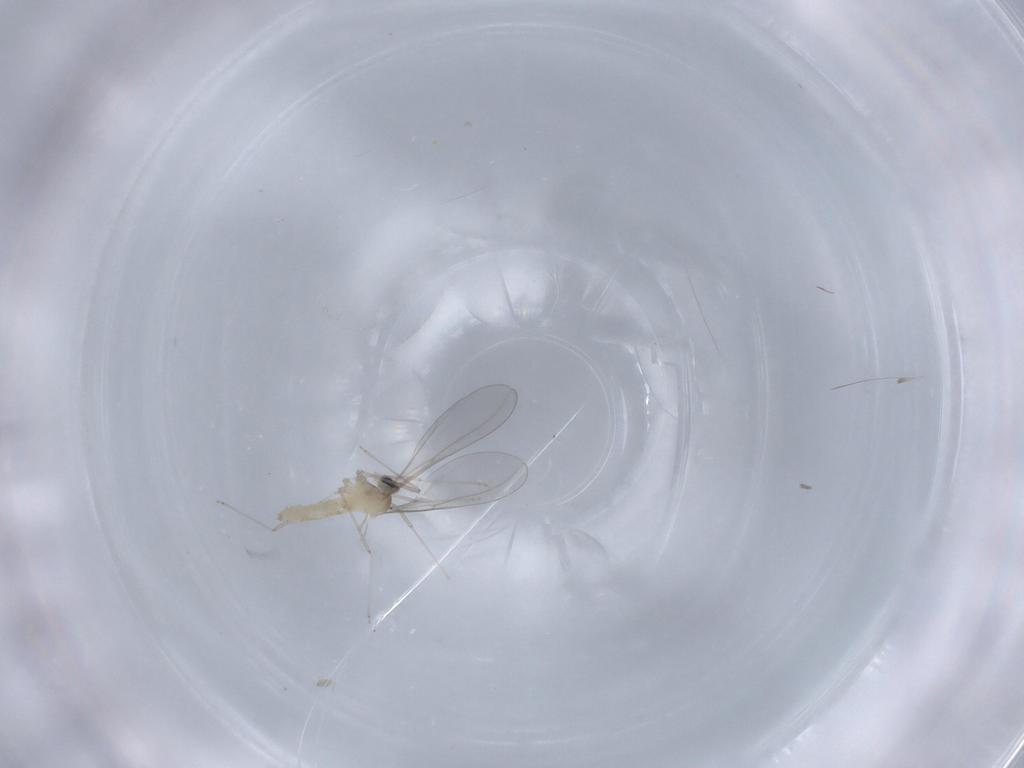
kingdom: Animalia
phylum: Arthropoda
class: Insecta
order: Diptera
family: Cecidomyiidae
